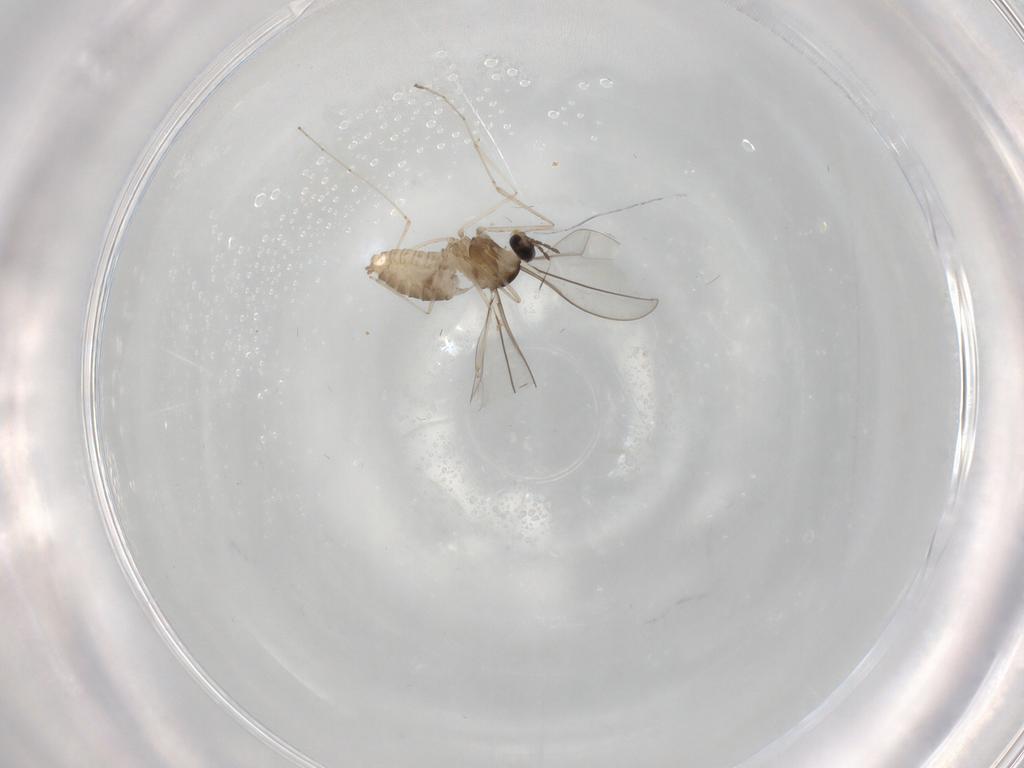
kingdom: Animalia
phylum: Arthropoda
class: Insecta
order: Diptera
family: Cecidomyiidae
